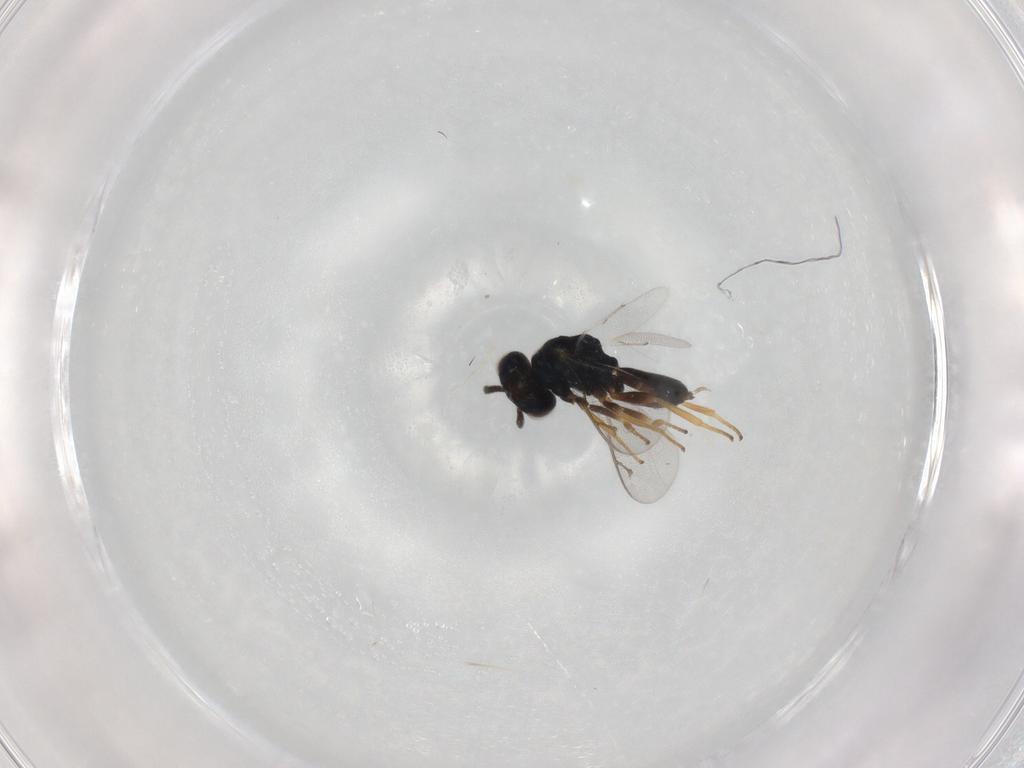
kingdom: Animalia
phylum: Arthropoda
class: Insecta
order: Hymenoptera
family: Pteromalidae
